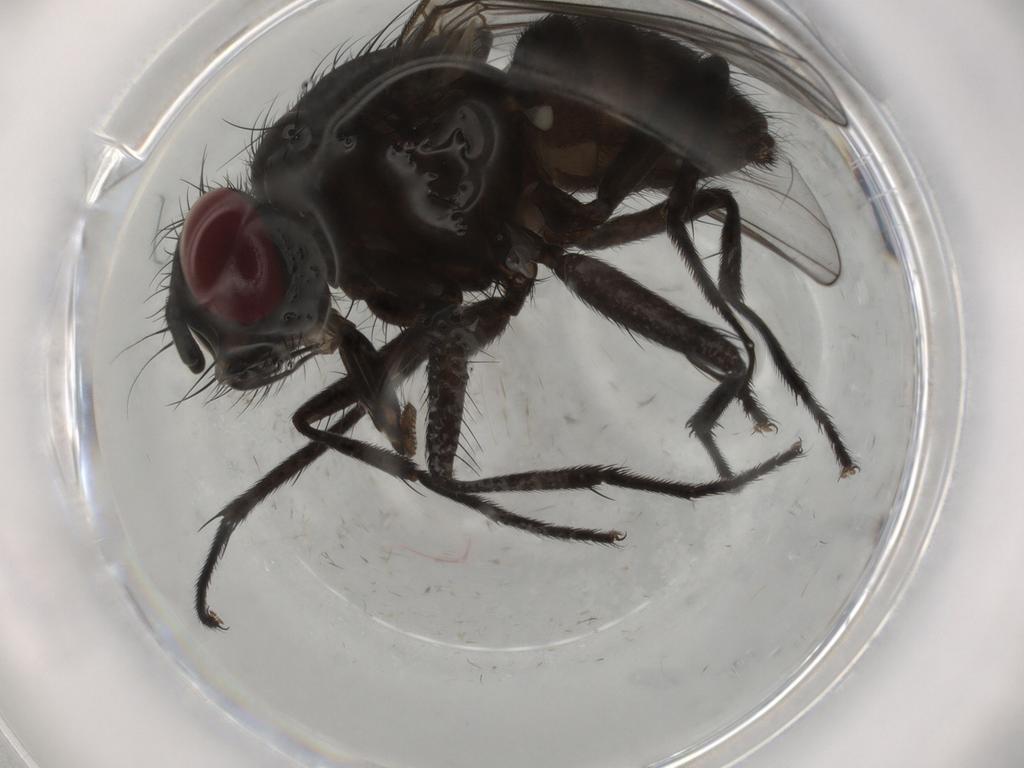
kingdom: Animalia
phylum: Arthropoda
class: Insecta
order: Diptera
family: Muscidae
